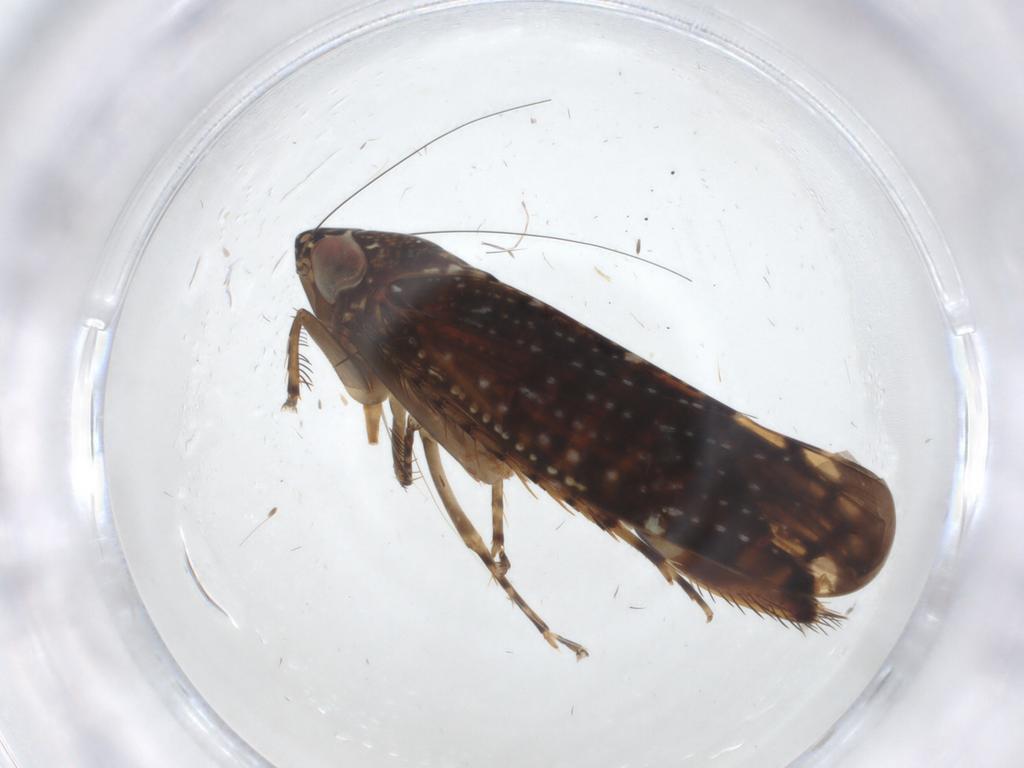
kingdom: Animalia
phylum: Arthropoda
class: Insecta
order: Hemiptera
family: Cicadellidae
